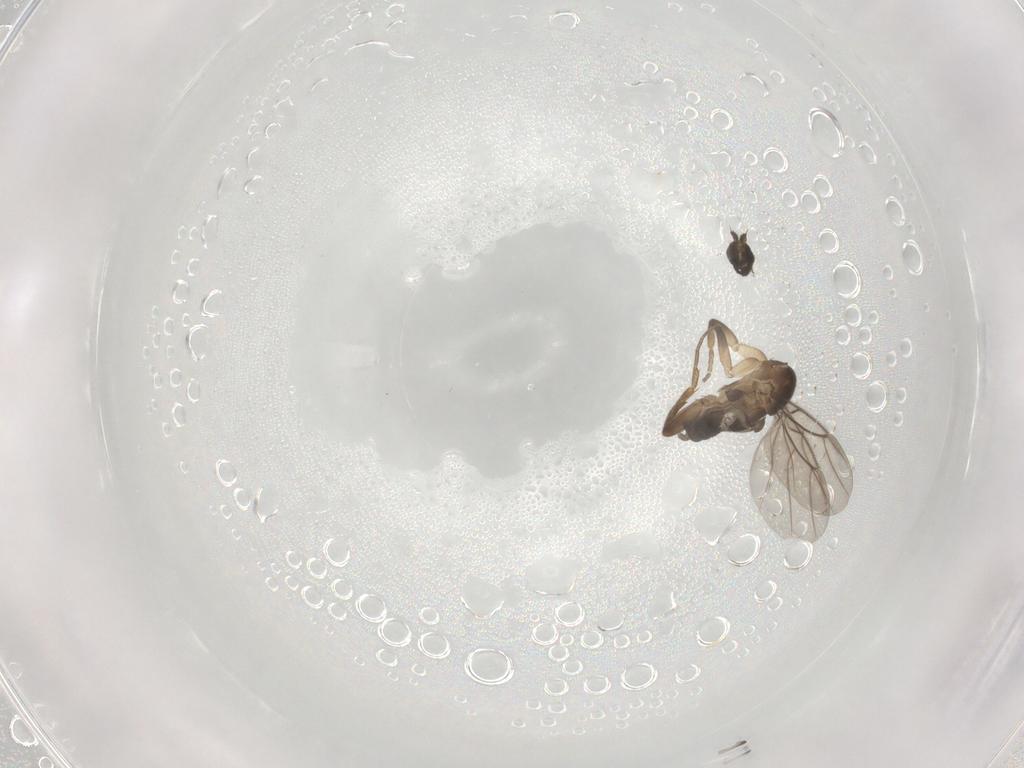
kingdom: Animalia
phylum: Arthropoda
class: Insecta
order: Diptera
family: Phoridae
